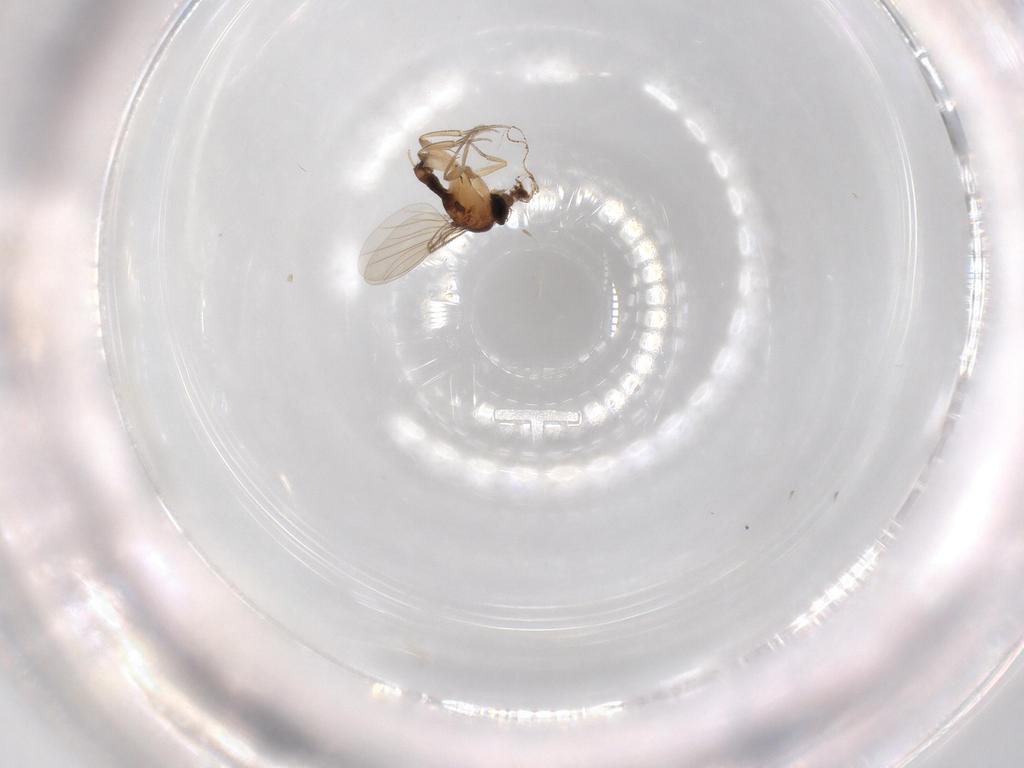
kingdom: Animalia
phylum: Arthropoda
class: Insecta
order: Diptera
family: Phoridae
